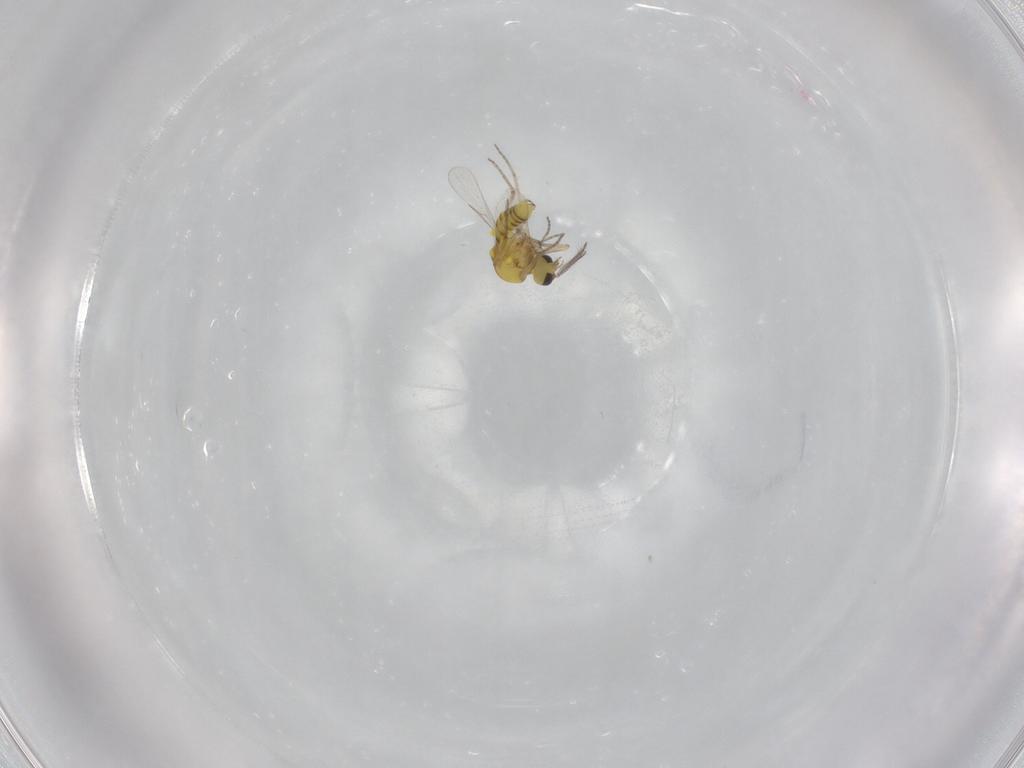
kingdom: Animalia
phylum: Arthropoda
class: Insecta
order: Diptera
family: Ceratopogonidae
